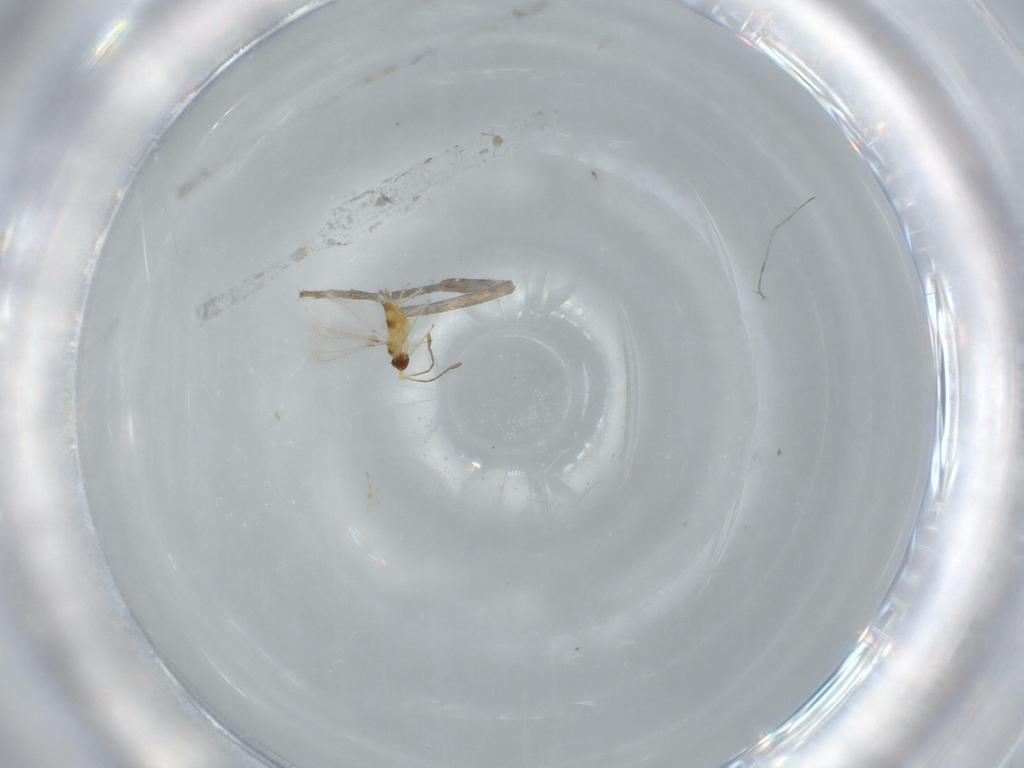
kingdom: Animalia
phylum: Arthropoda
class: Insecta
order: Hymenoptera
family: Mymaridae
